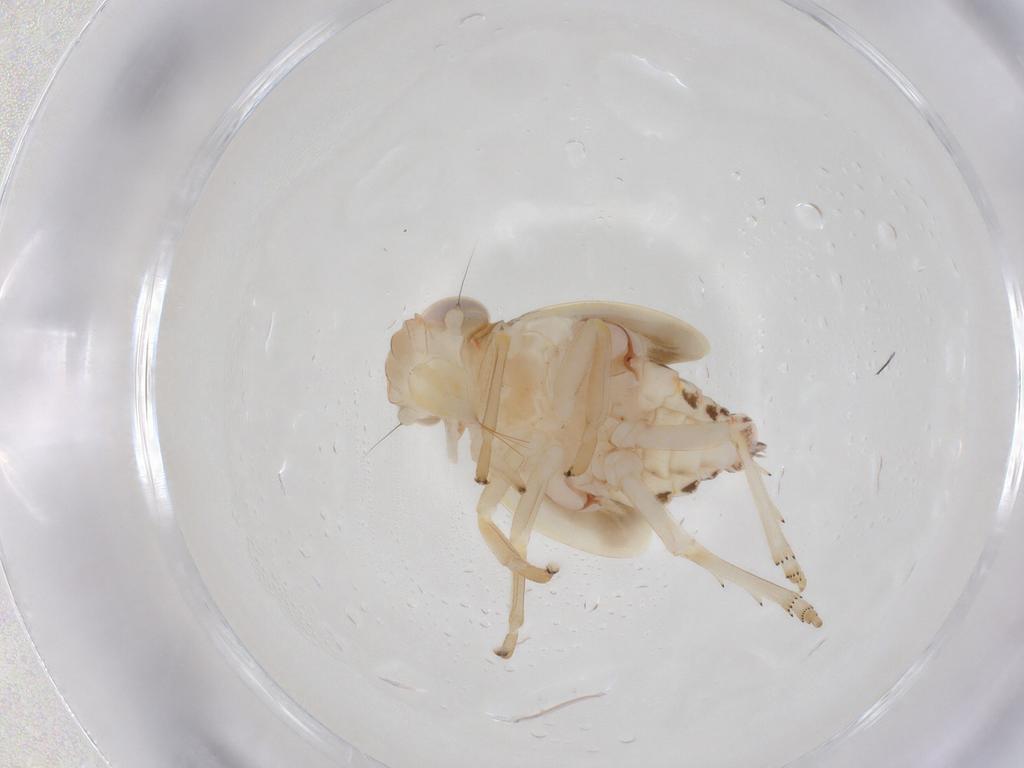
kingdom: Animalia
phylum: Arthropoda
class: Insecta
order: Hemiptera
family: Nogodinidae
